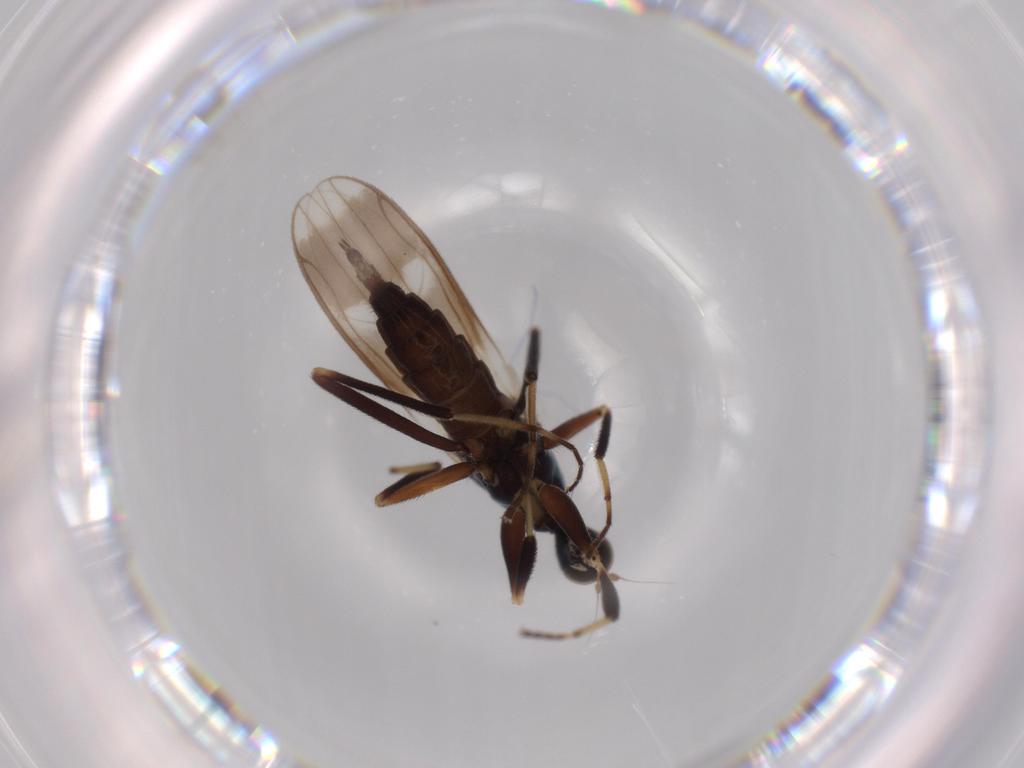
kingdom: Animalia
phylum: Arthropoda
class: Insecta
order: Diptera
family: Hybotidae
